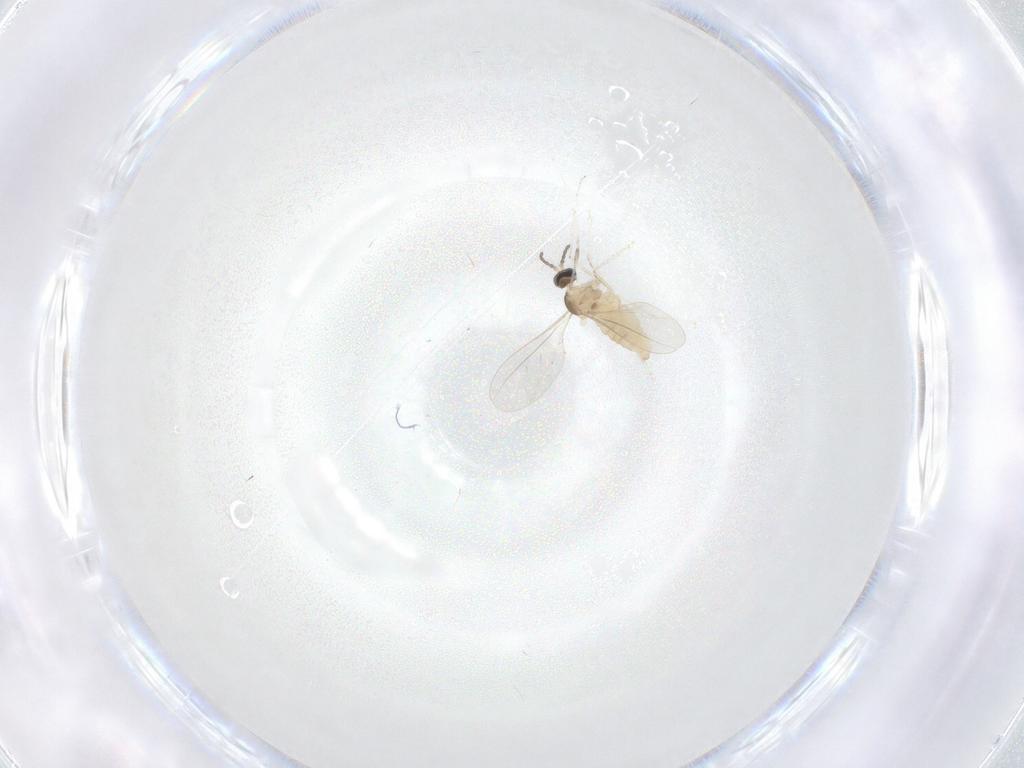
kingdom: Animalia
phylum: Arthropoda
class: Insecta
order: Diptera
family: Cecidomyiidae
